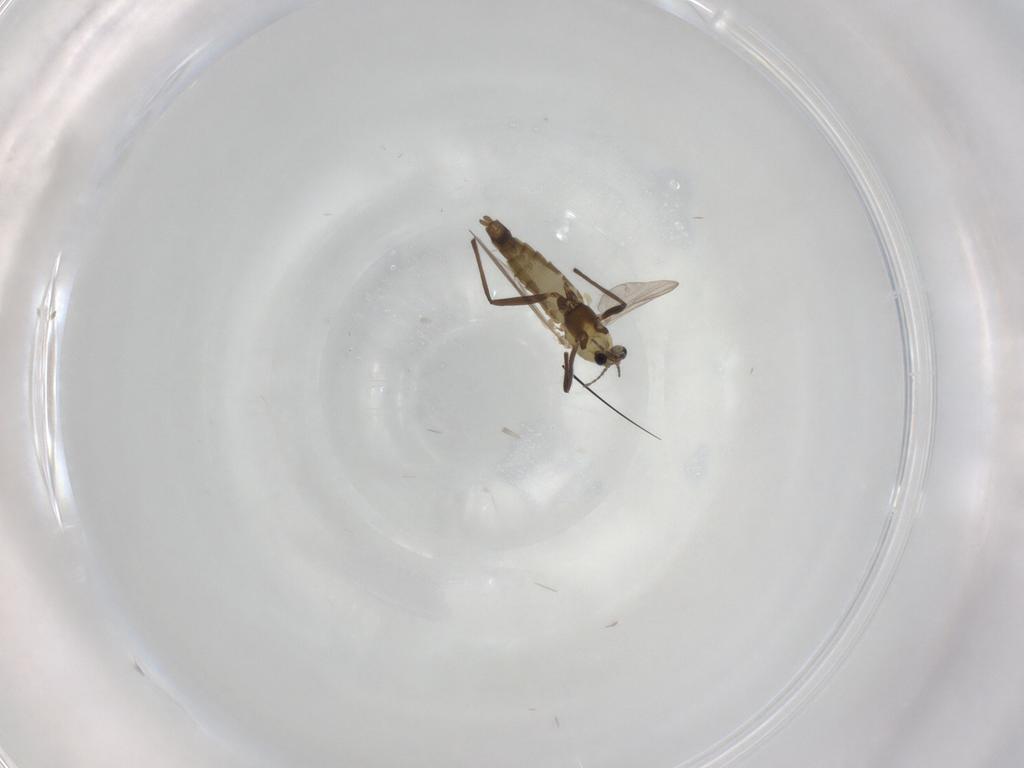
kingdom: Animalia
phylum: Arthropoda
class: Insecta
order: Diptera
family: Chironomidae
